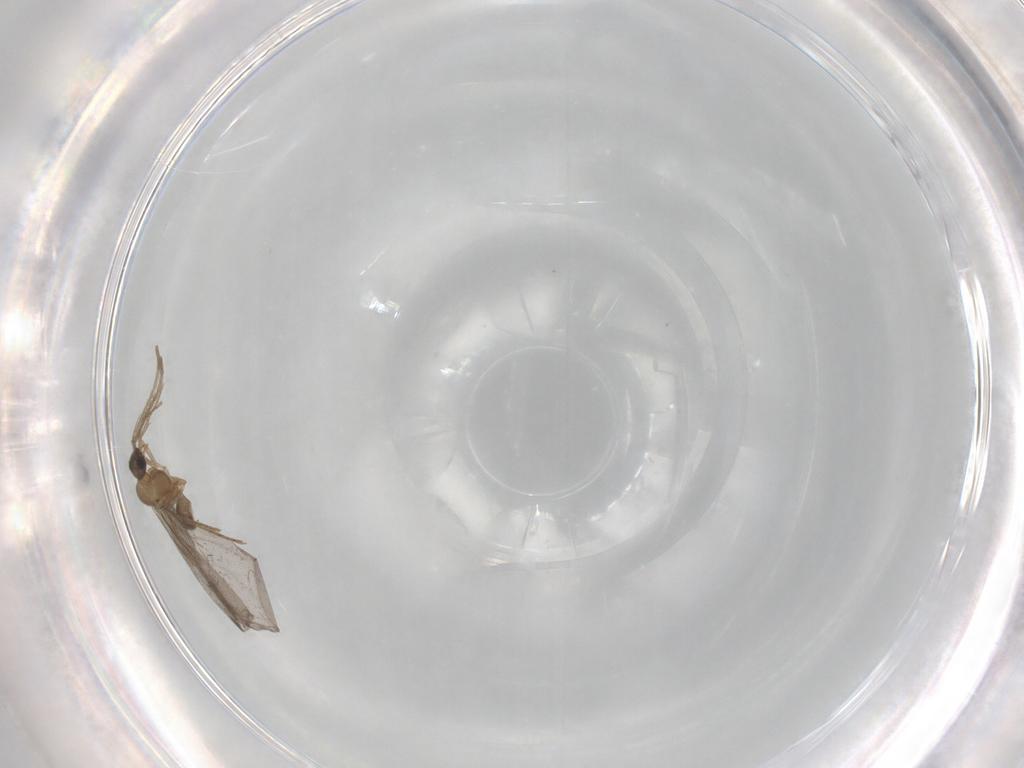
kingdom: Animalia
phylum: Arthropoda
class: Insecta
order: Hymenoptera
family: Formicidae
